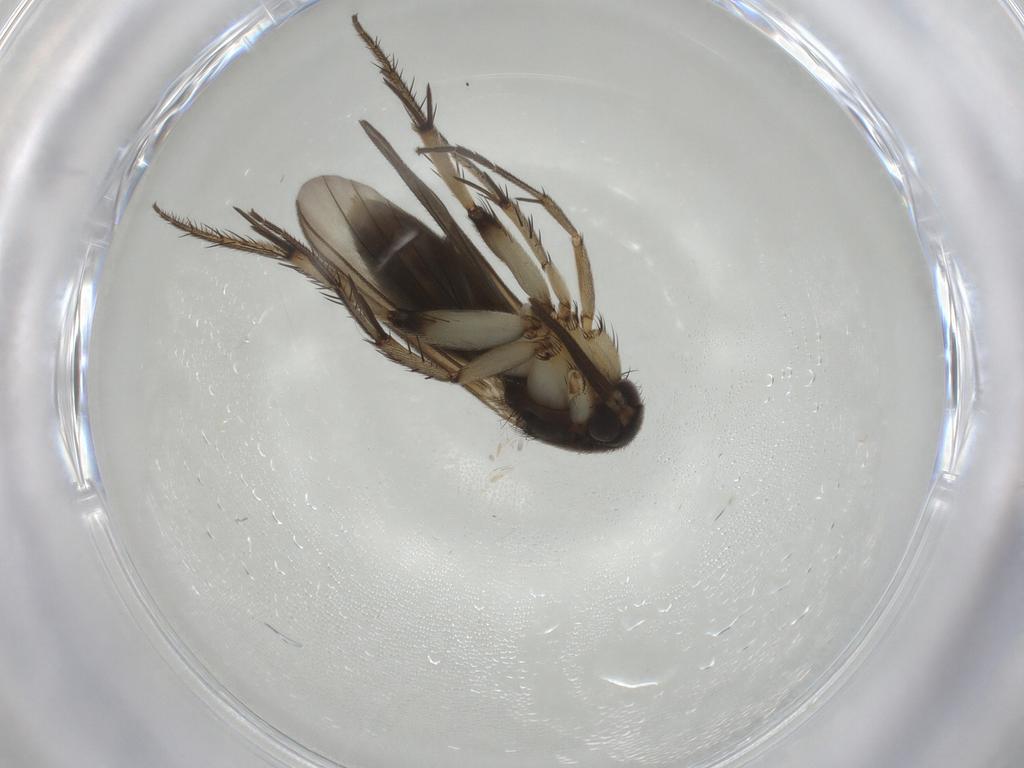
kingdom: Animalia
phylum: Arthropoda
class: Insecta
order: Diptera
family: Mycetophilidae
